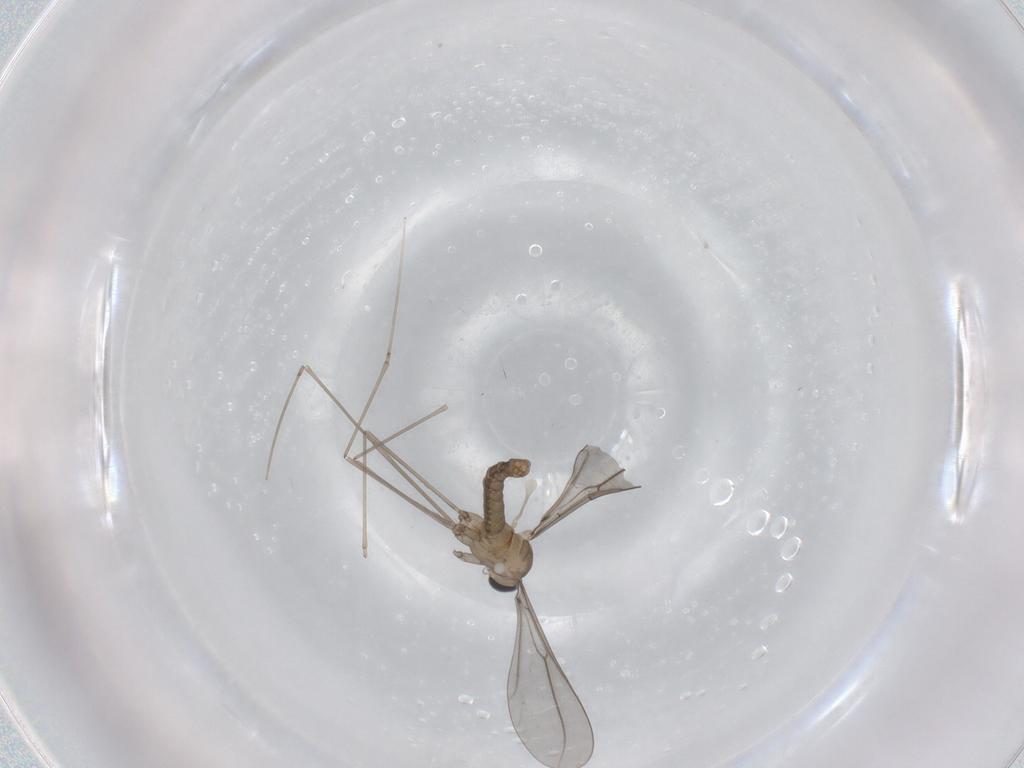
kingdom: Animalia
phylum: Arthropoda
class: Insecta
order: Diptera
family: Cecidomyiidae
